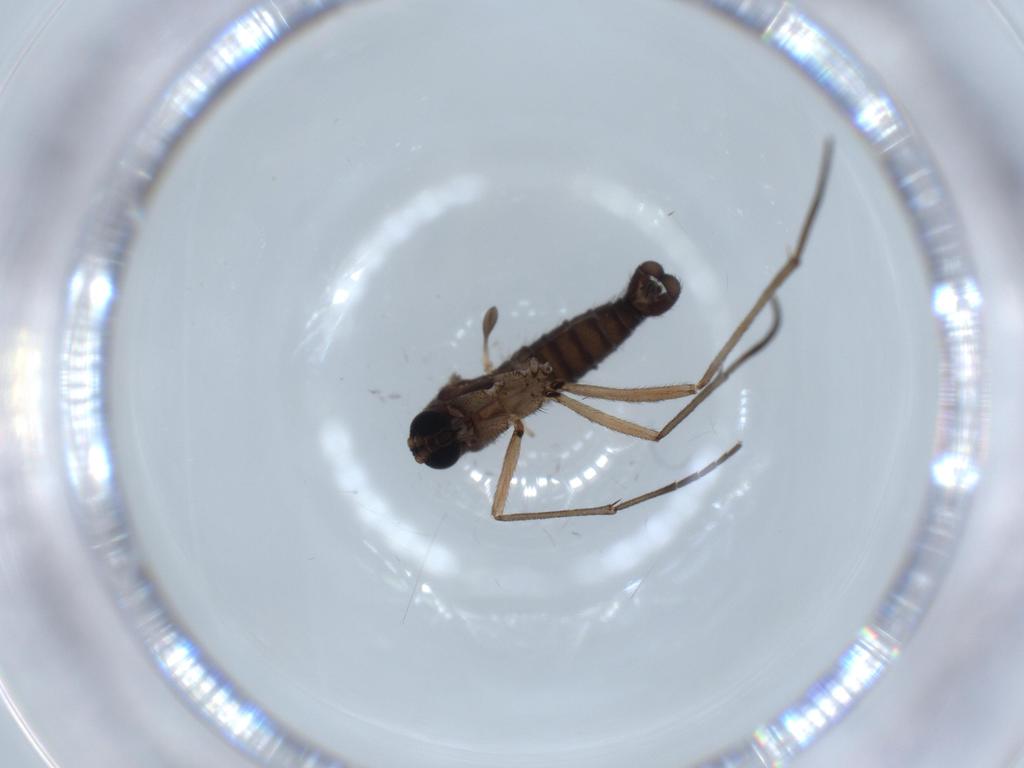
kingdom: Animalia
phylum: Arthropoda
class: Insecta
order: Diptera
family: Sciaridae
